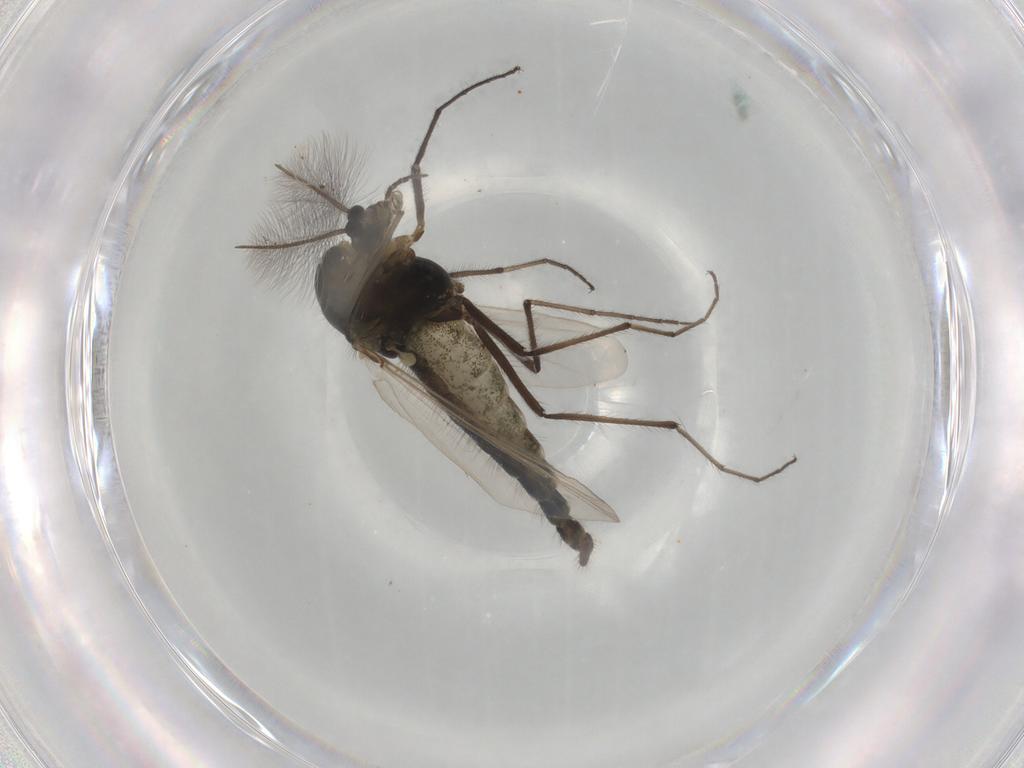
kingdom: Animalia
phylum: Arthropoda
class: Insecta
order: Diptera
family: Chironomidae
